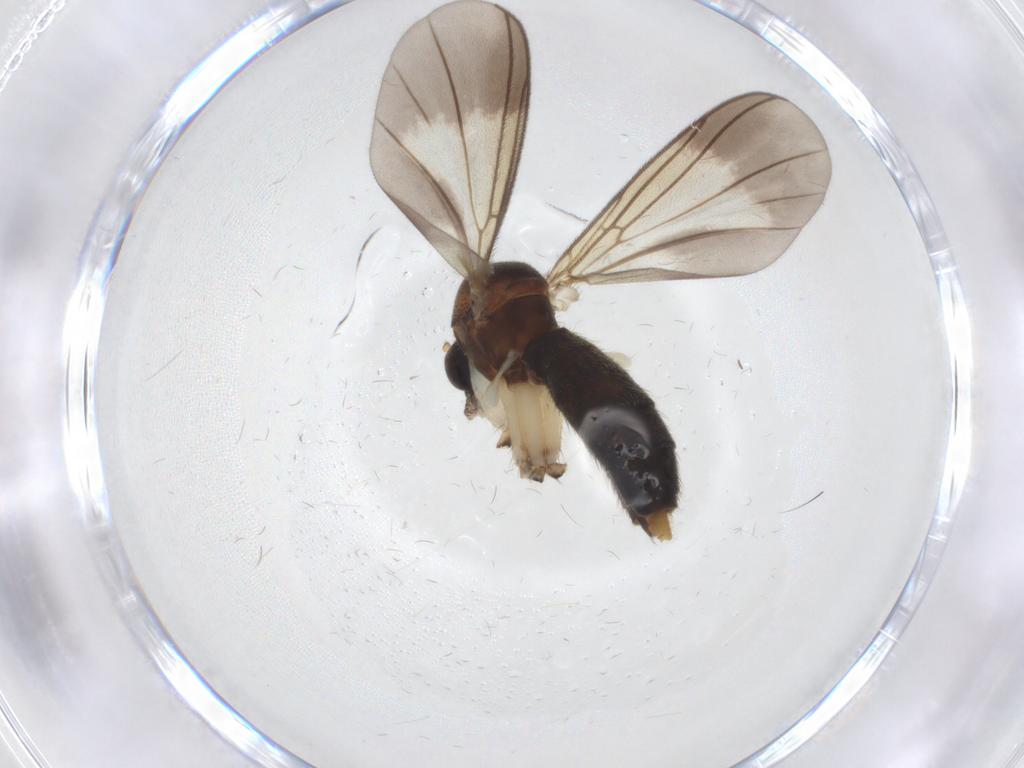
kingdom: Animalia
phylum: Arthropoda
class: Insecta
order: Diptera
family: Mycetophilidae
